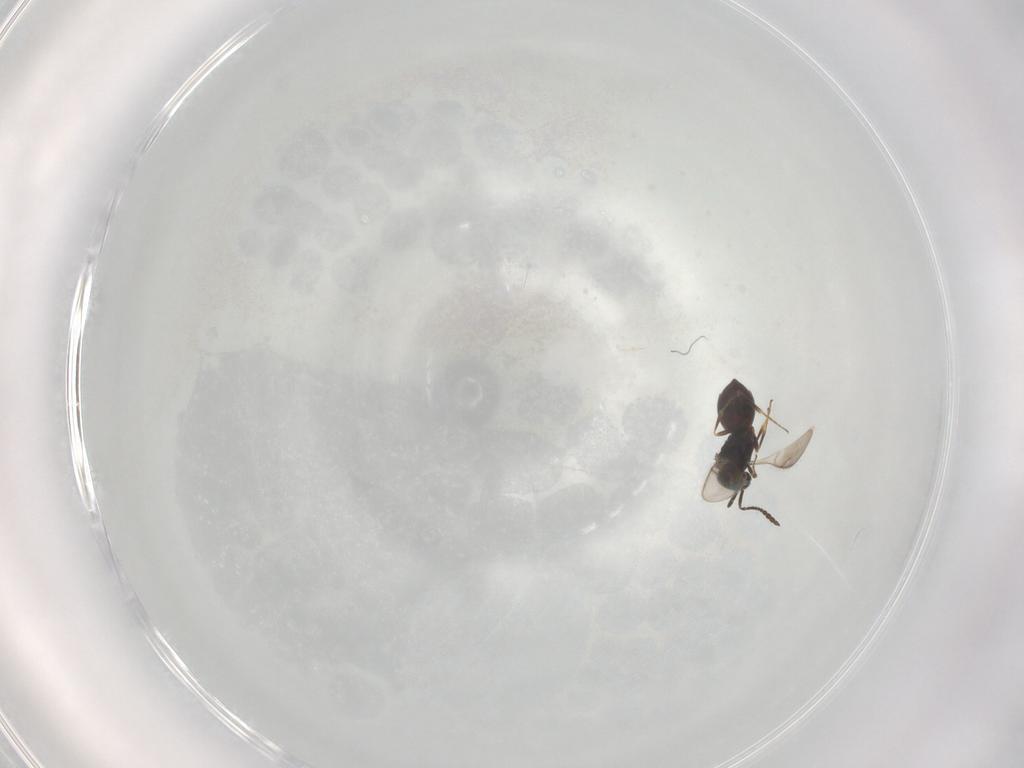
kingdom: Animalia
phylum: Arthropoda
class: Insecta
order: Hymenoptera
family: Scelionidae
